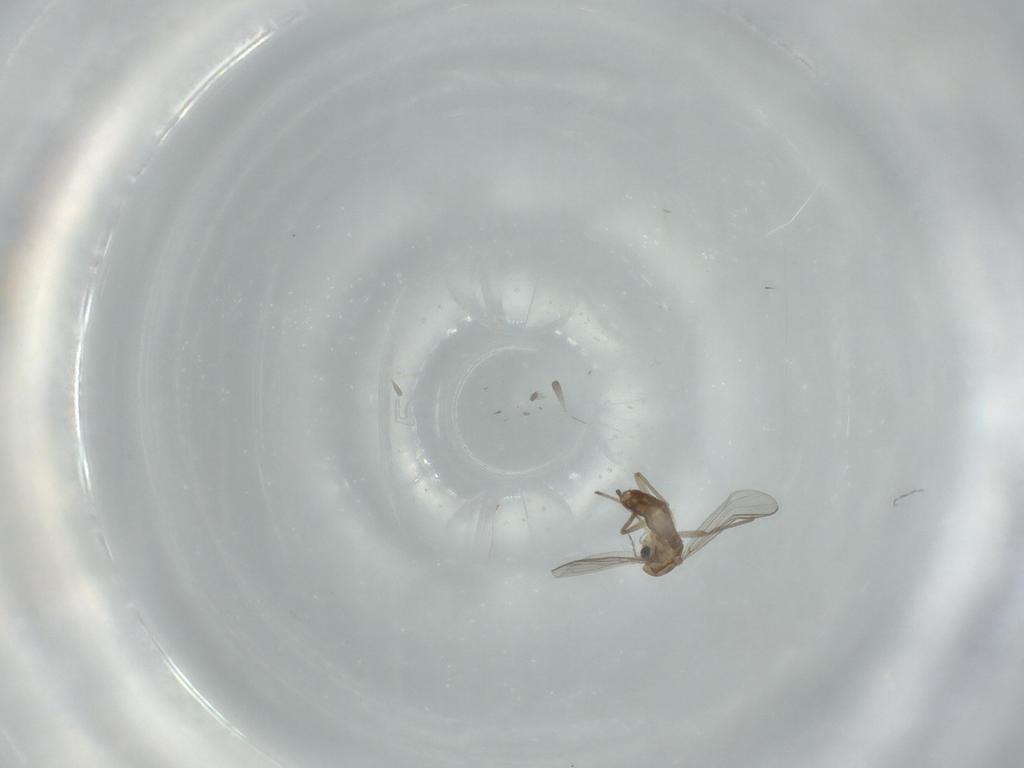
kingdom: Animalia
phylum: Arthropoda
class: Insecta
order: Diptera
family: Chironomidae
